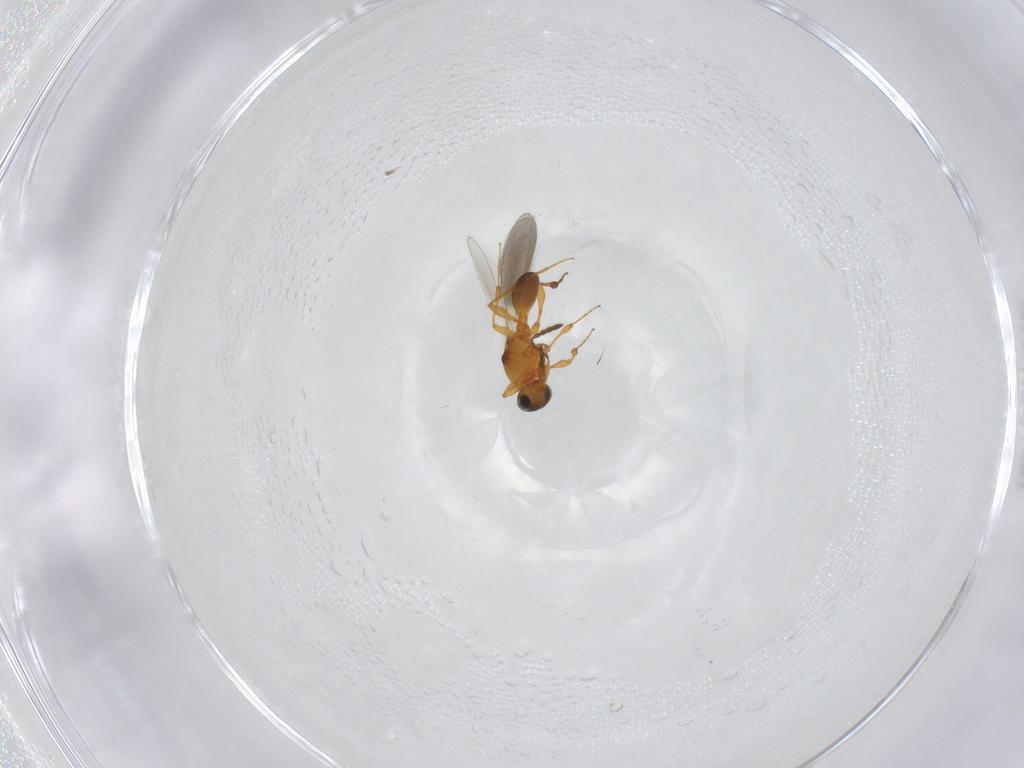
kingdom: Animalia
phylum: Arthropoda
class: Insecta
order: Hymenoptera
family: Platygastridae
